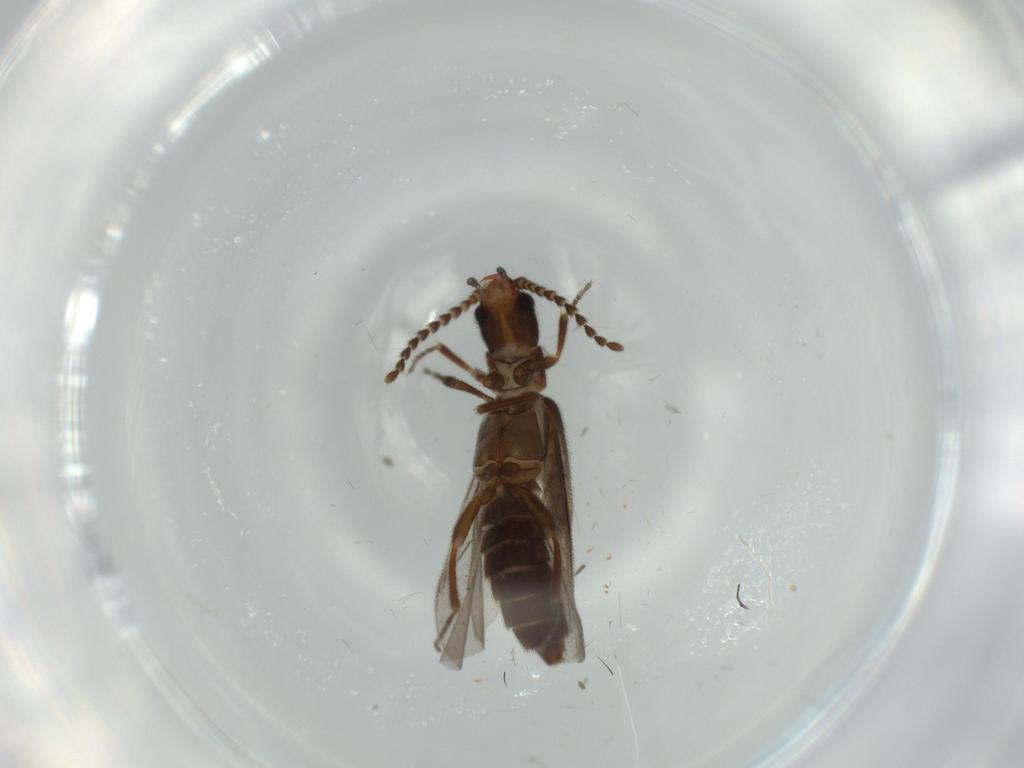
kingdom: Animalia
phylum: Arthropoda
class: Insecta
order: Coleoptera
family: Omethidae
